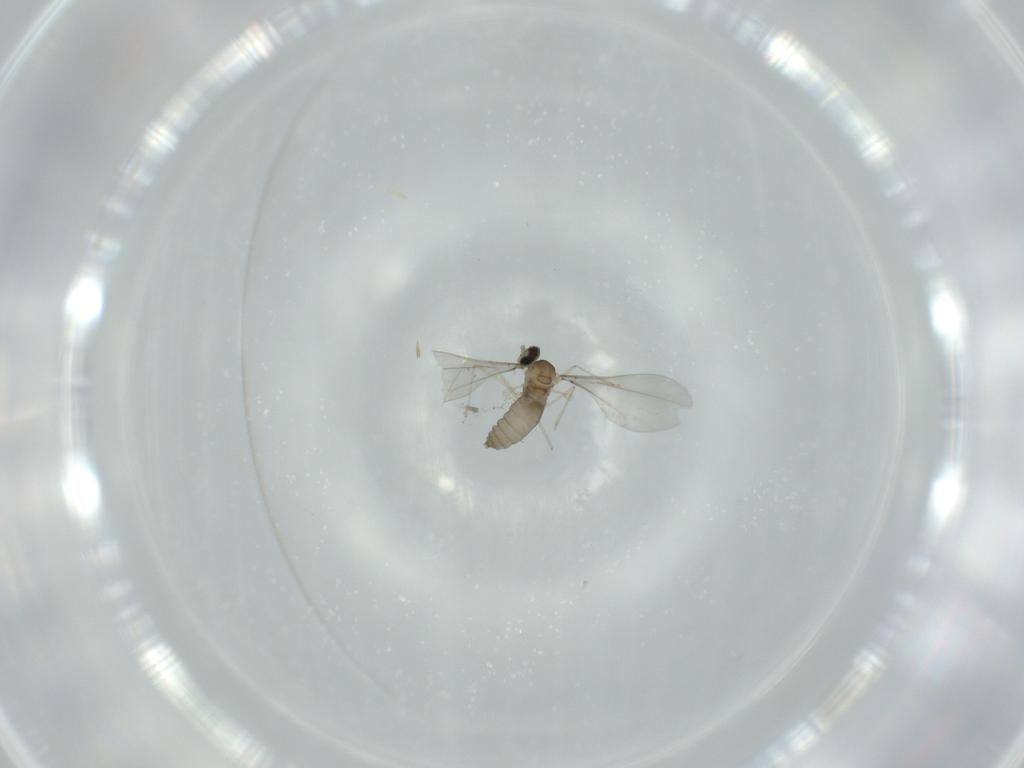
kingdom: Animalia
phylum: Arthropoda
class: Insecta
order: Diptera
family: Cecidomyiidae
